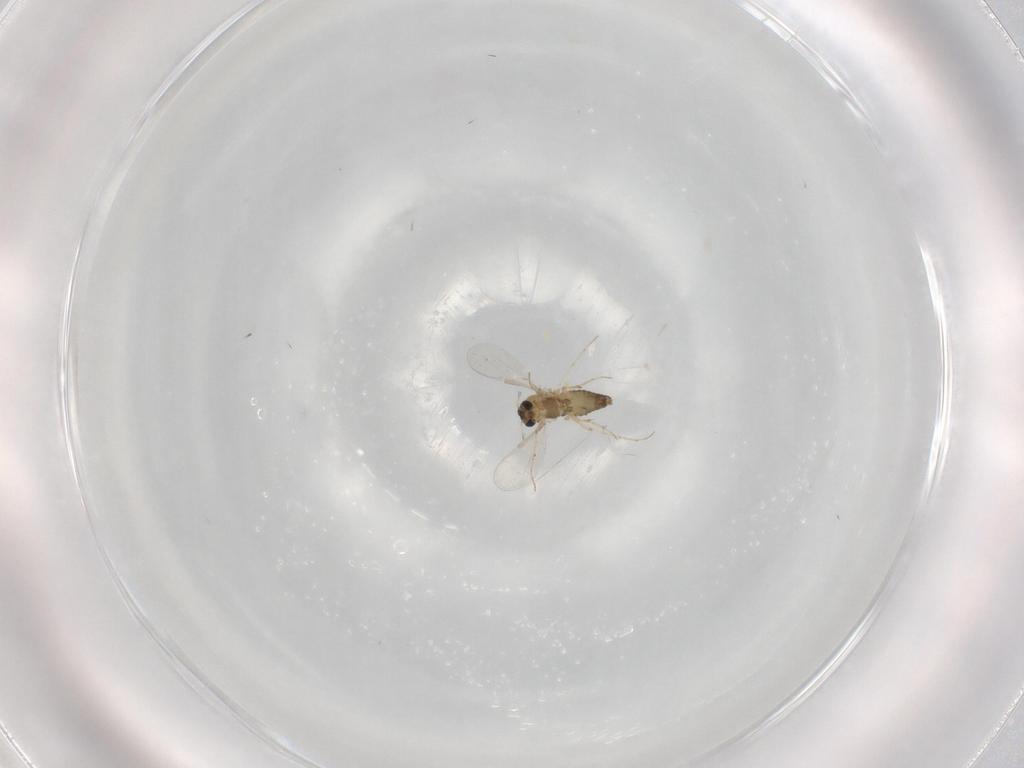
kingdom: Animalia
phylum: Arthropoda
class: Insecta
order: Diptera
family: Chironomidae
